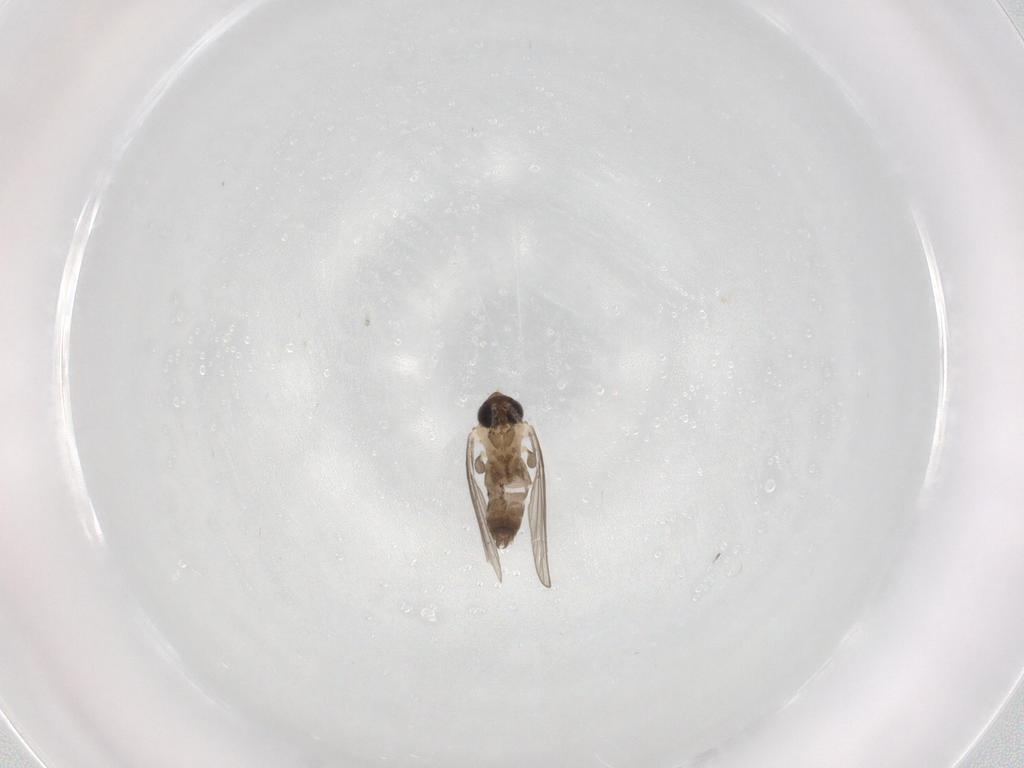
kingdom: Animalia
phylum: Arthropoda
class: Insecta
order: Diptera
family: Psychodidae
